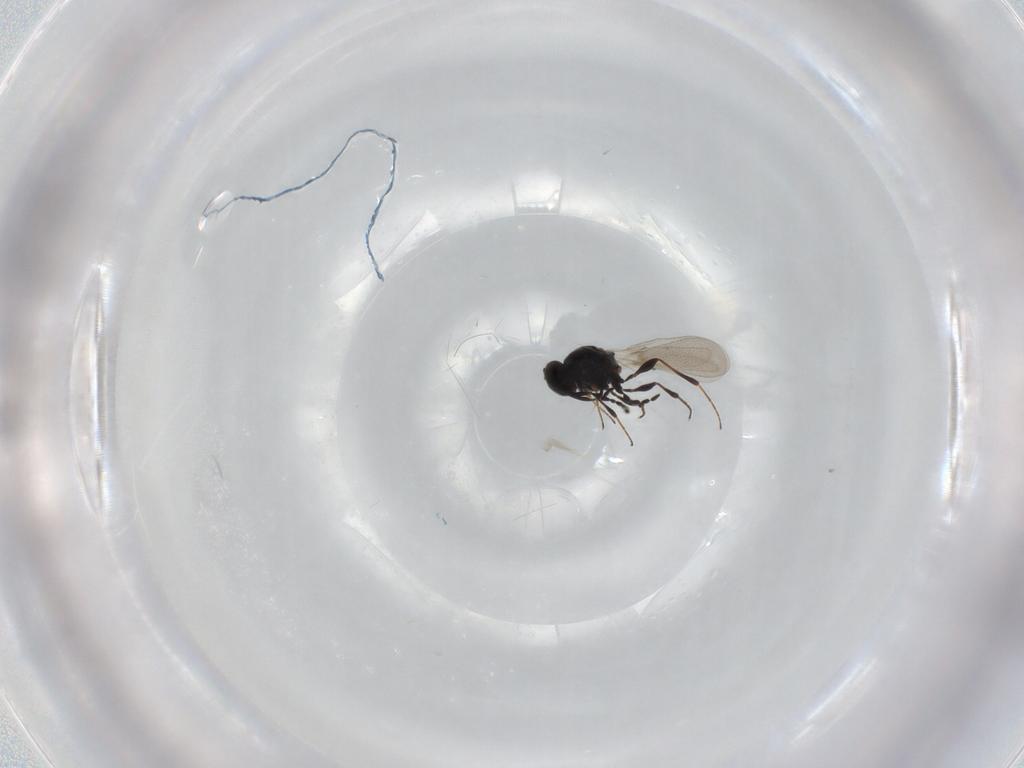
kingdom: Animalia
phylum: Arthropoda
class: Insecta
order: Hymenoptera
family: Platygastridae
